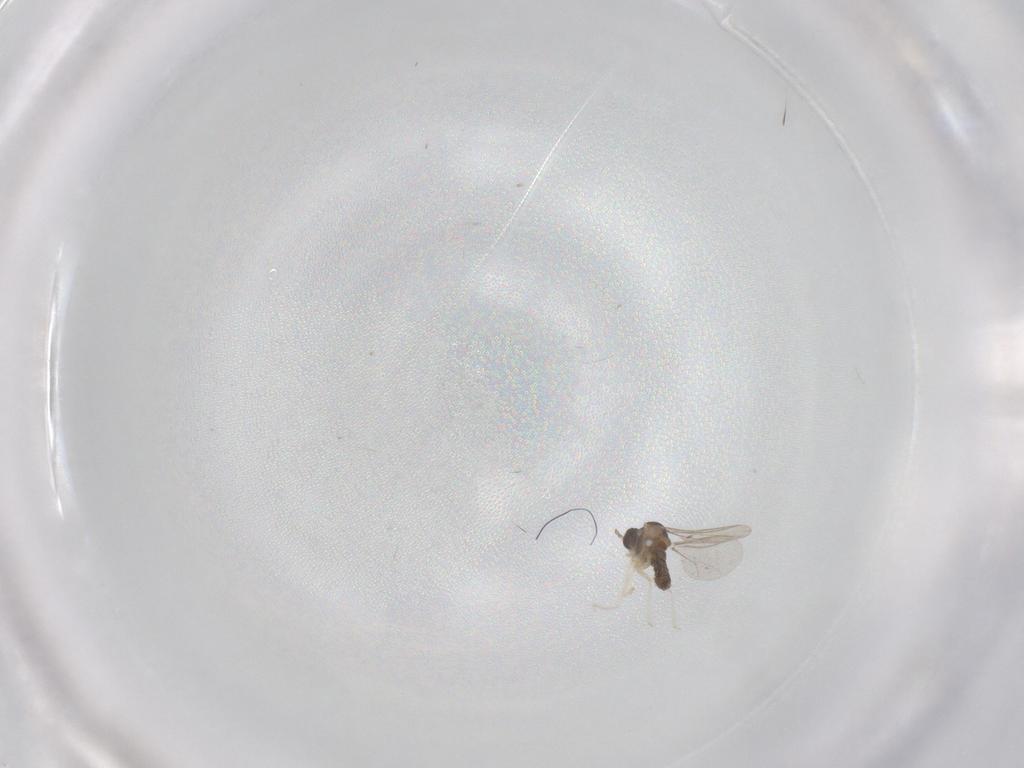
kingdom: Animalia
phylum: Arthropoda
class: Insecta
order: Diptera
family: Cecidomyiidae
